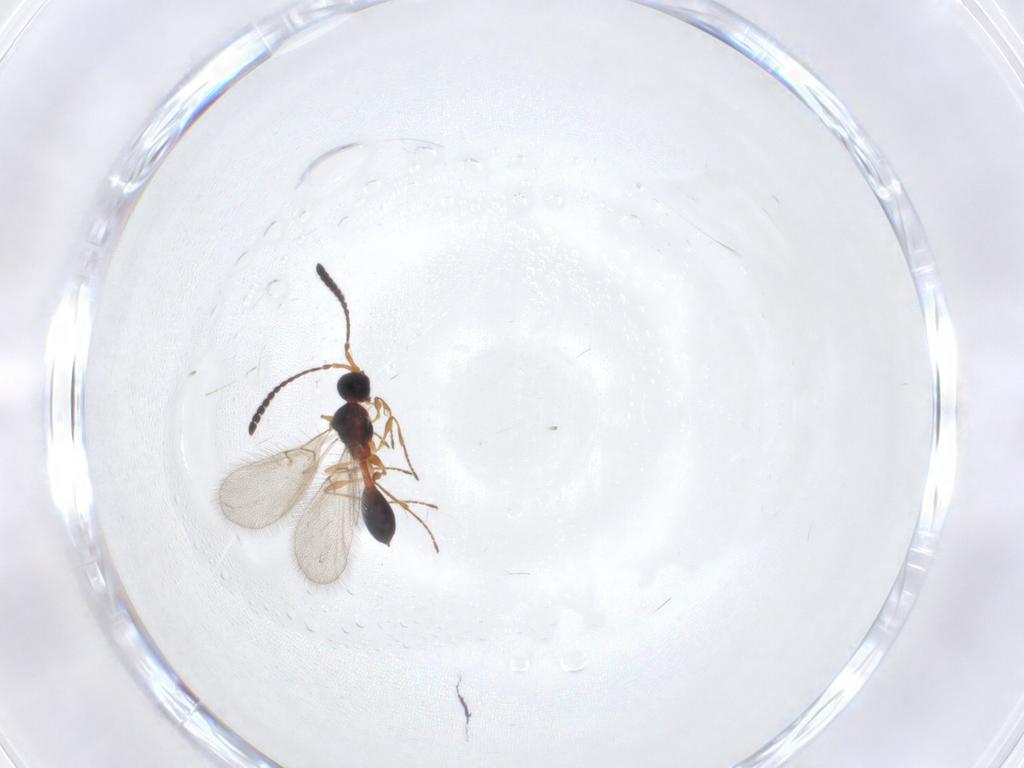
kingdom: Animalia
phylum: Arthropoda
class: Insecta
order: Hymenoptera
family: Diapriidae
